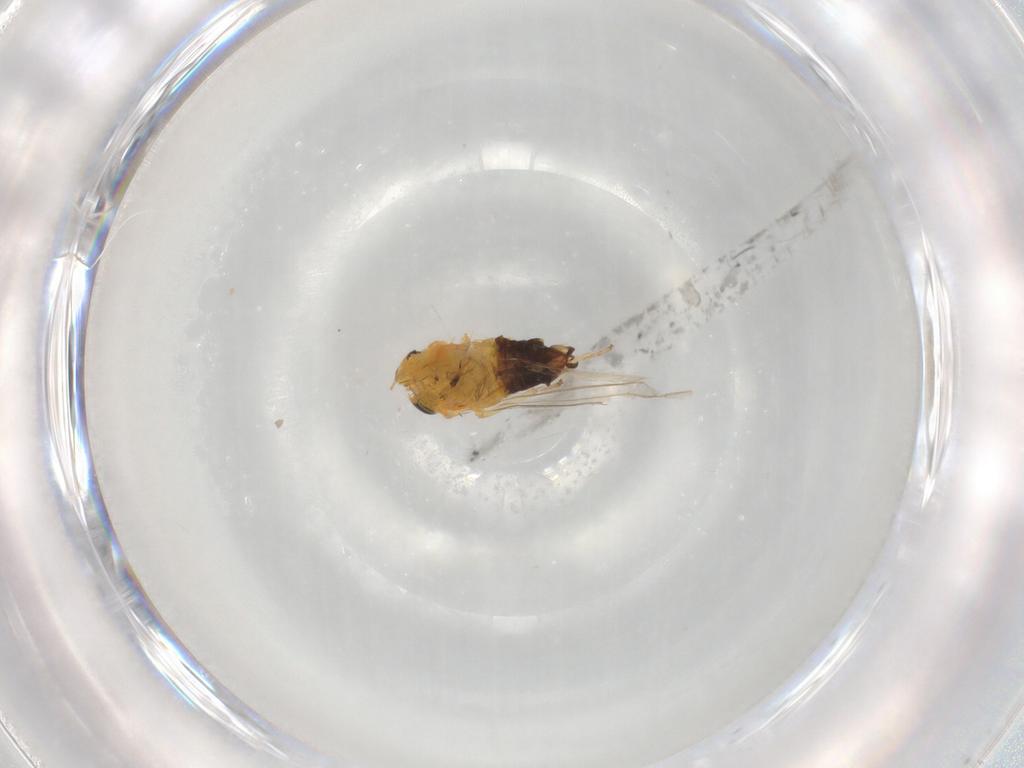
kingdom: Animalia
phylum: Arthropoda
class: Insecta
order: Hemiptera
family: Cicadellidae
